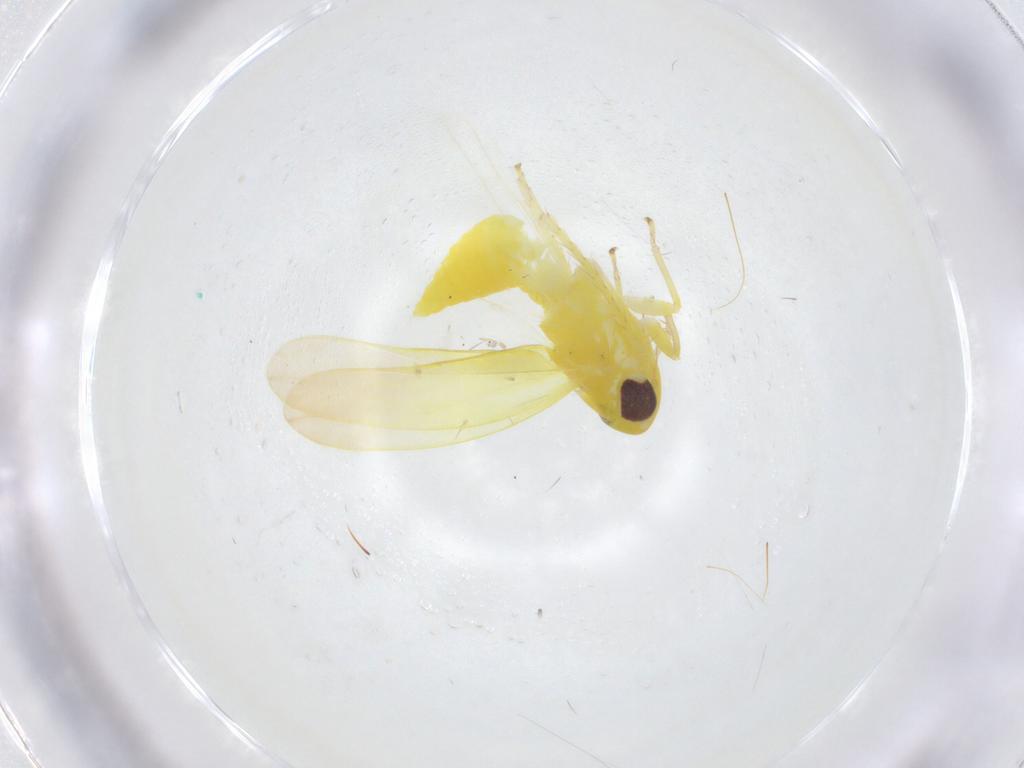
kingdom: Animalia
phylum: Arthropoda
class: Insecta
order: Hemiptera
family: Cicadellidae
